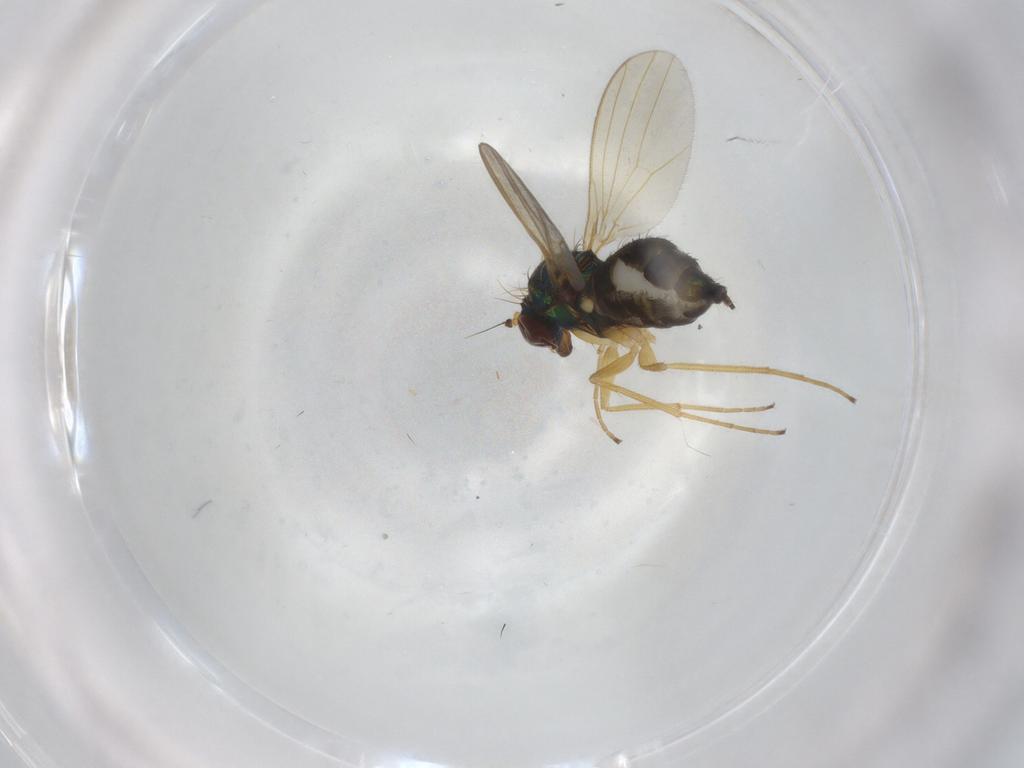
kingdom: Animalia
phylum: Arthropoda
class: Insecta
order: Diptera
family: Dolichopodidae
